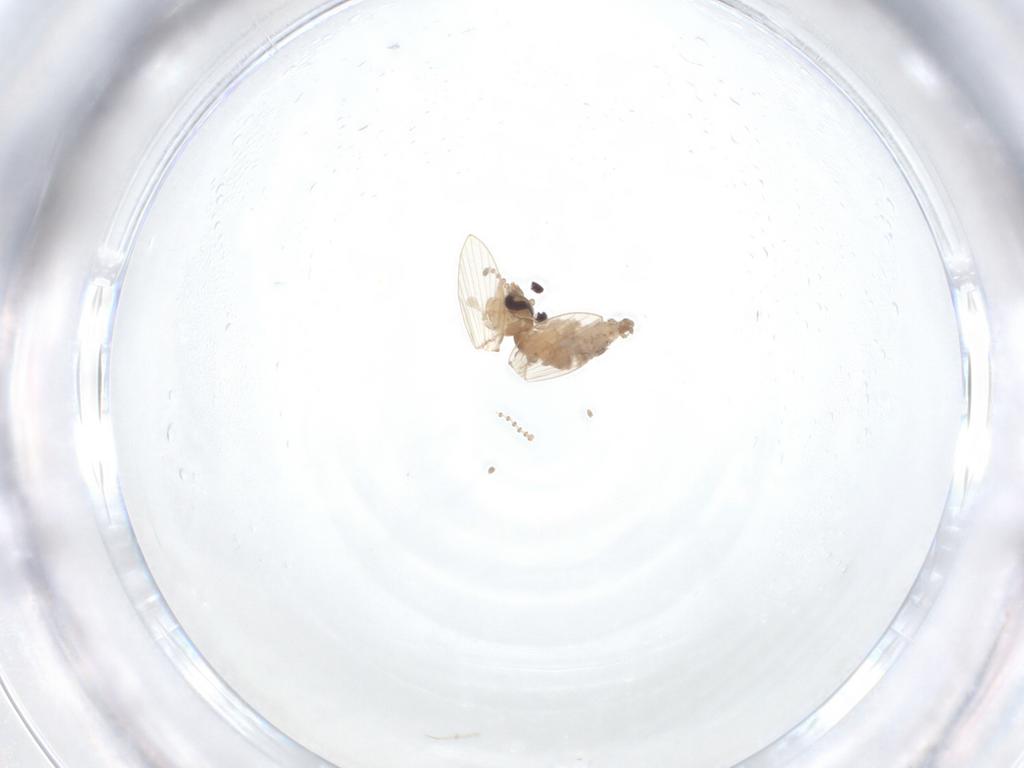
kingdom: Animalia
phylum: Arthropoda
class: Insecta
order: Diptera
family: Psychodidae
